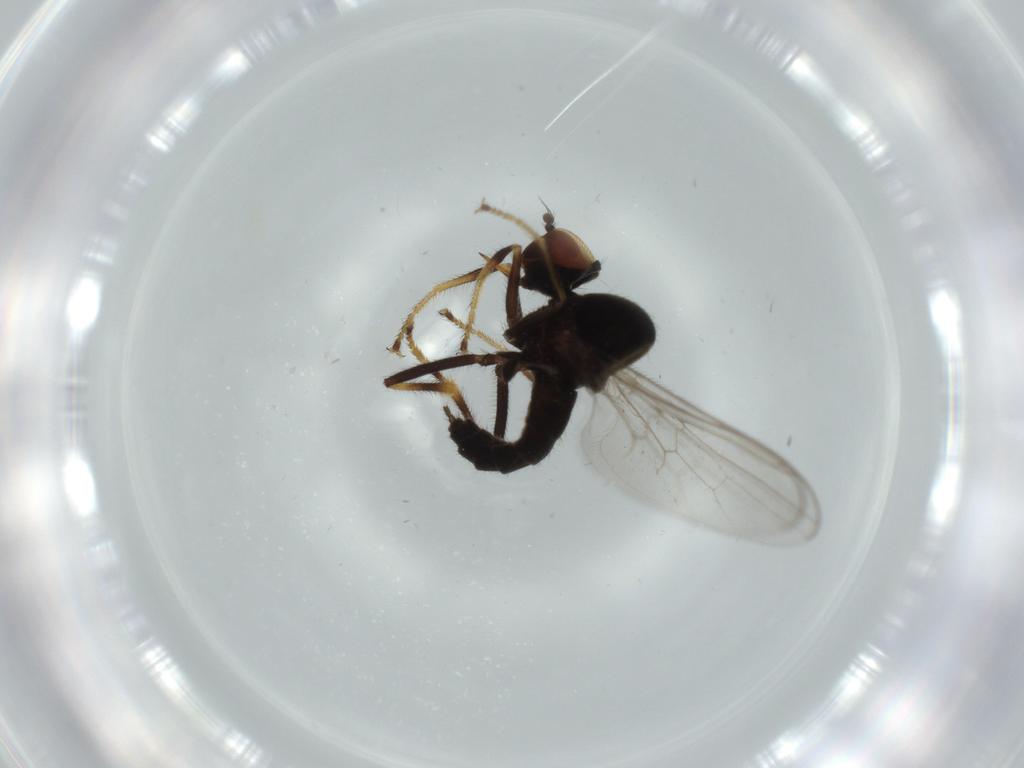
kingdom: Animalia
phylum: Arthropoda
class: Insecta
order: Diptera
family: Hybotidae
